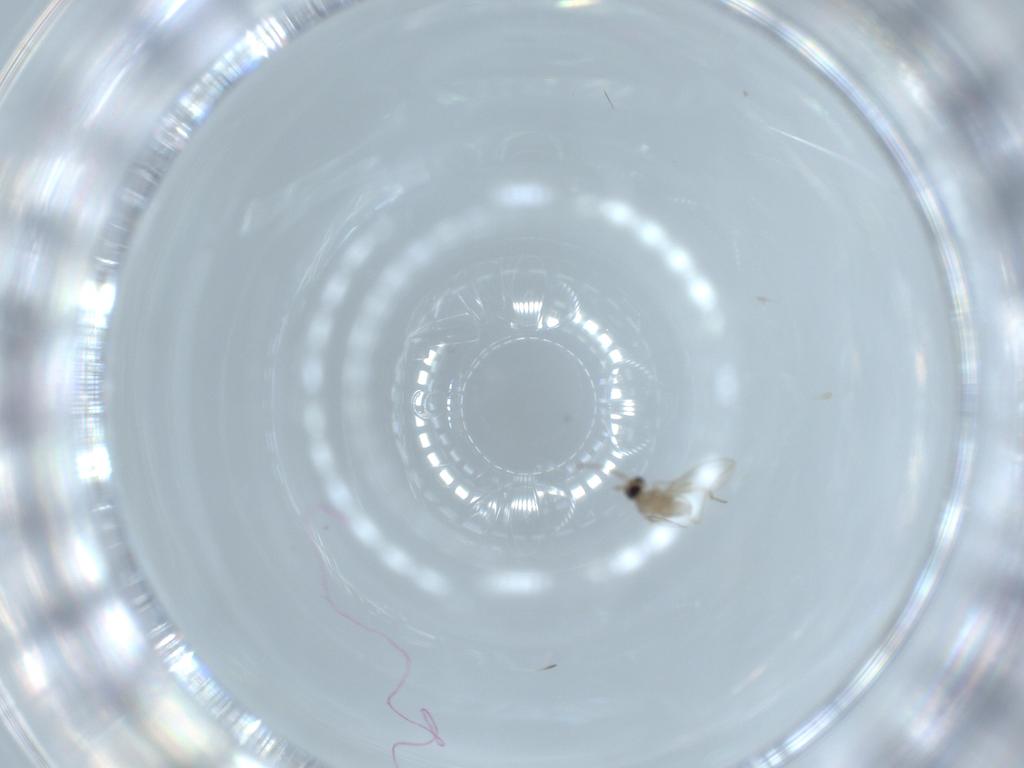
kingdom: Animalia
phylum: Arthropoda
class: Insecta
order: Diptera
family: Cecidomyiidae
